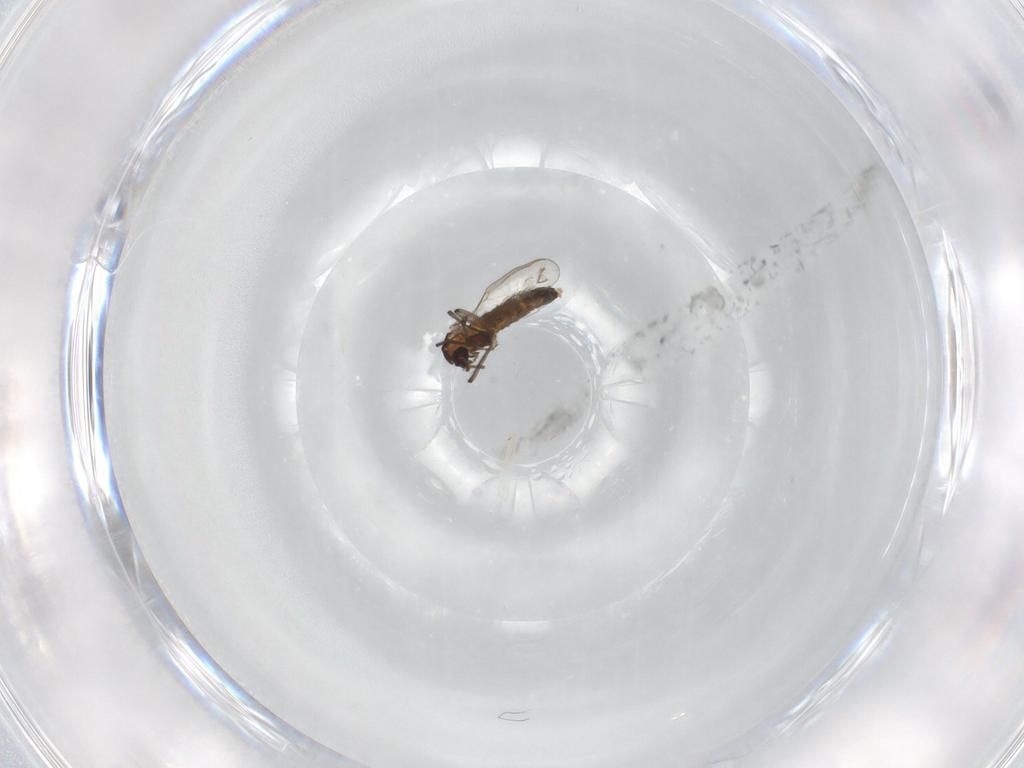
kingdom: Animalia
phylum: Arthropoda
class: Insecta
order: Diptera
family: Chironomidae
